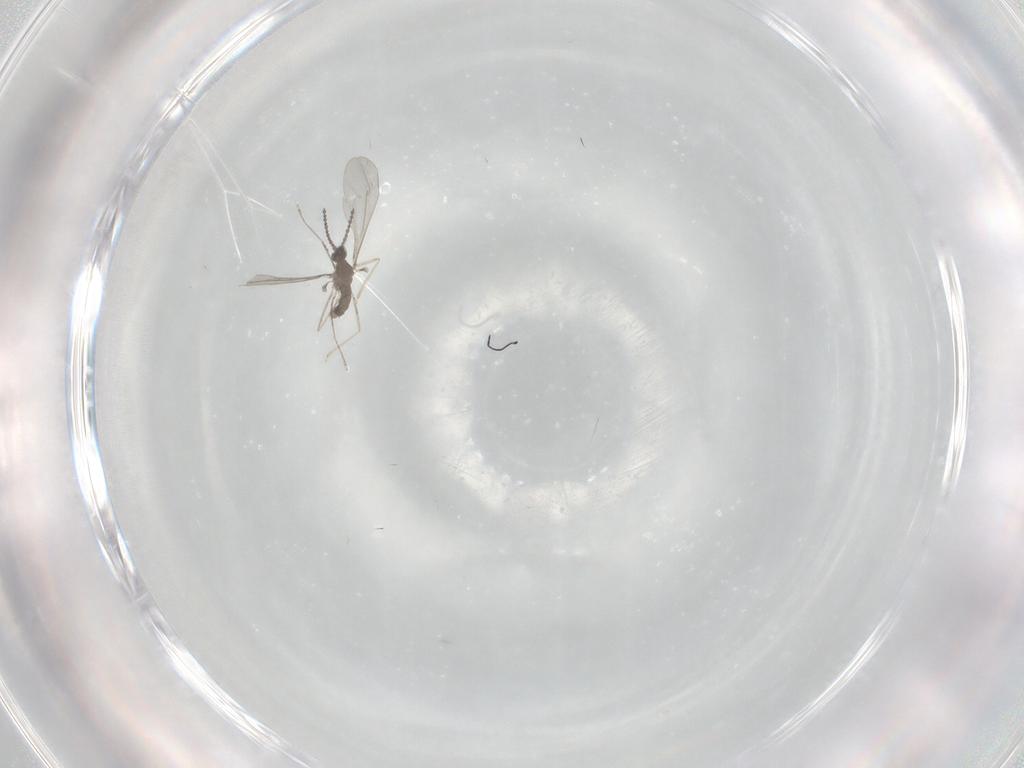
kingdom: Animalia
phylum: Arthropoda
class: Insecta
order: Diptera
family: Cecidomyiidae
